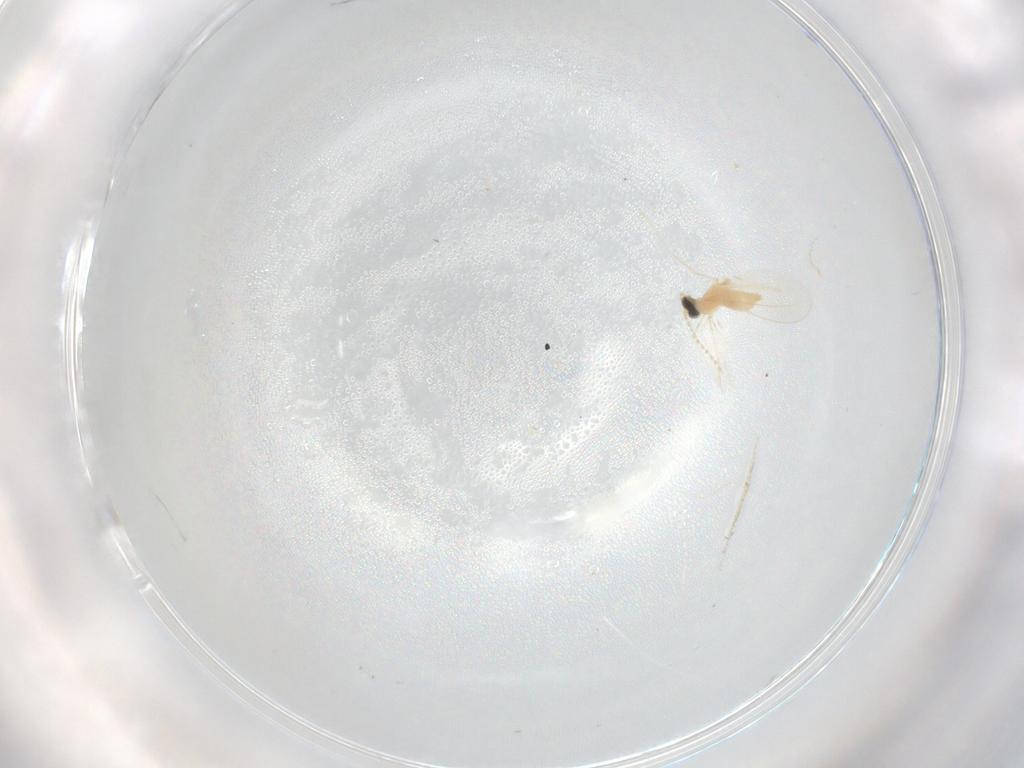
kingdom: Animalia
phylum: Arthropoda
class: Insecta
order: Diptera
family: Cecidomyiidae
